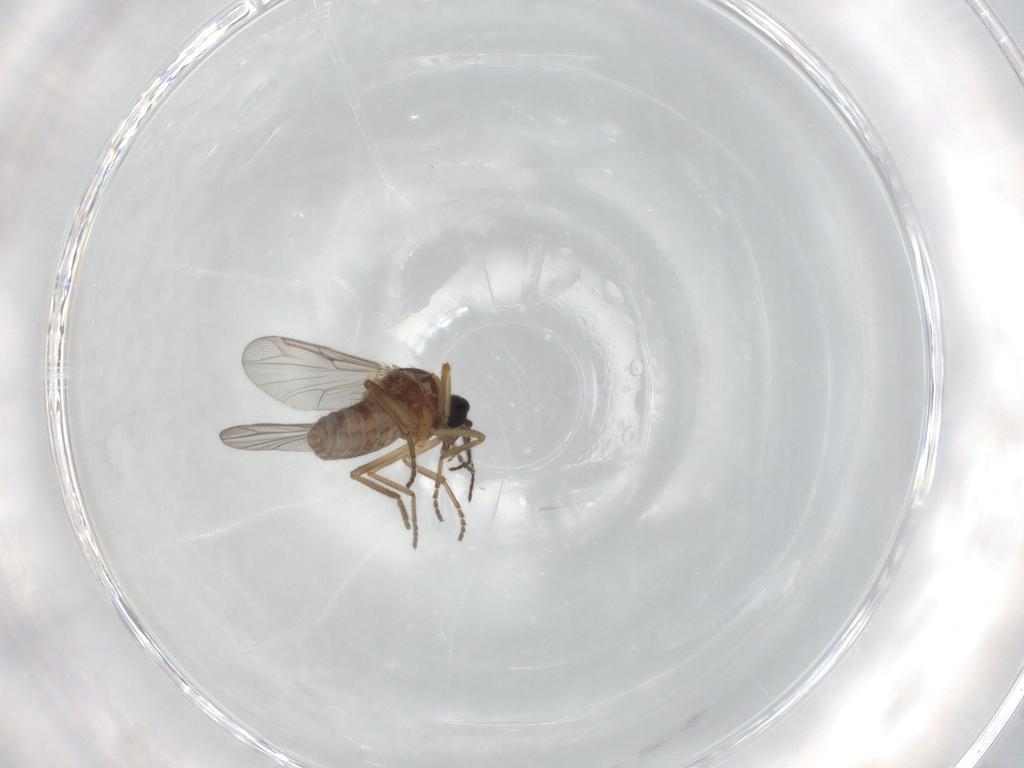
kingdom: Animalia
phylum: Arthropoda
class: Insecta
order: Diptera
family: Ceratopogonidae
